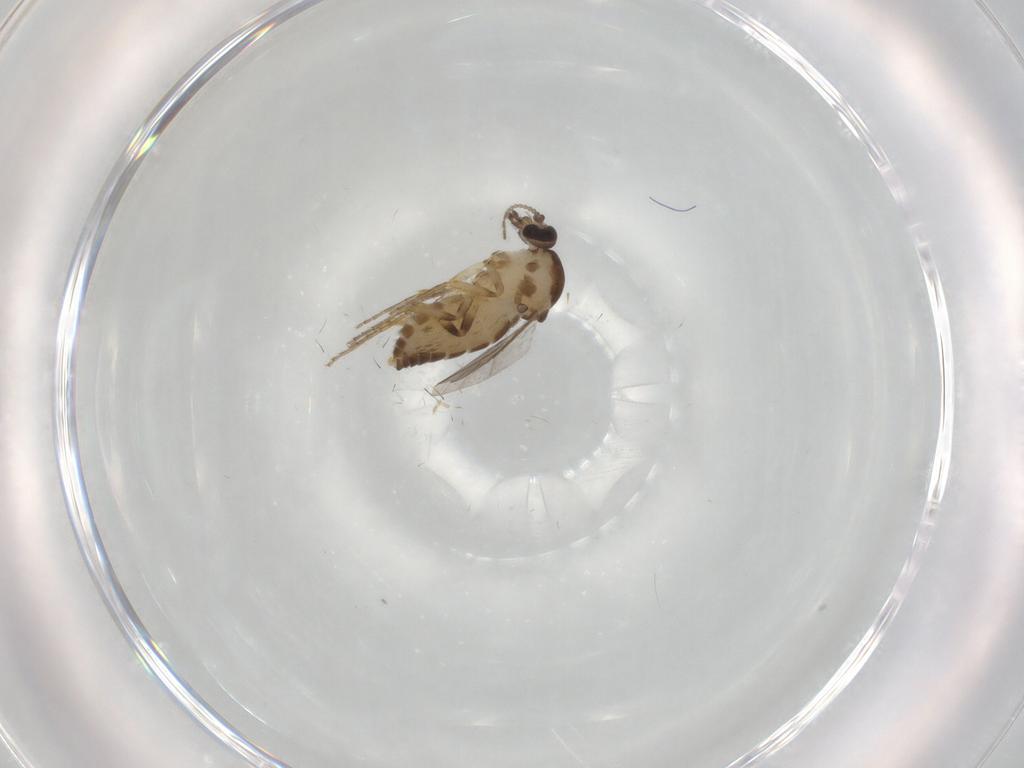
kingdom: Animalia
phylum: Arthropoda
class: Insecta
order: Diptera
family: Ceratopogonidae
